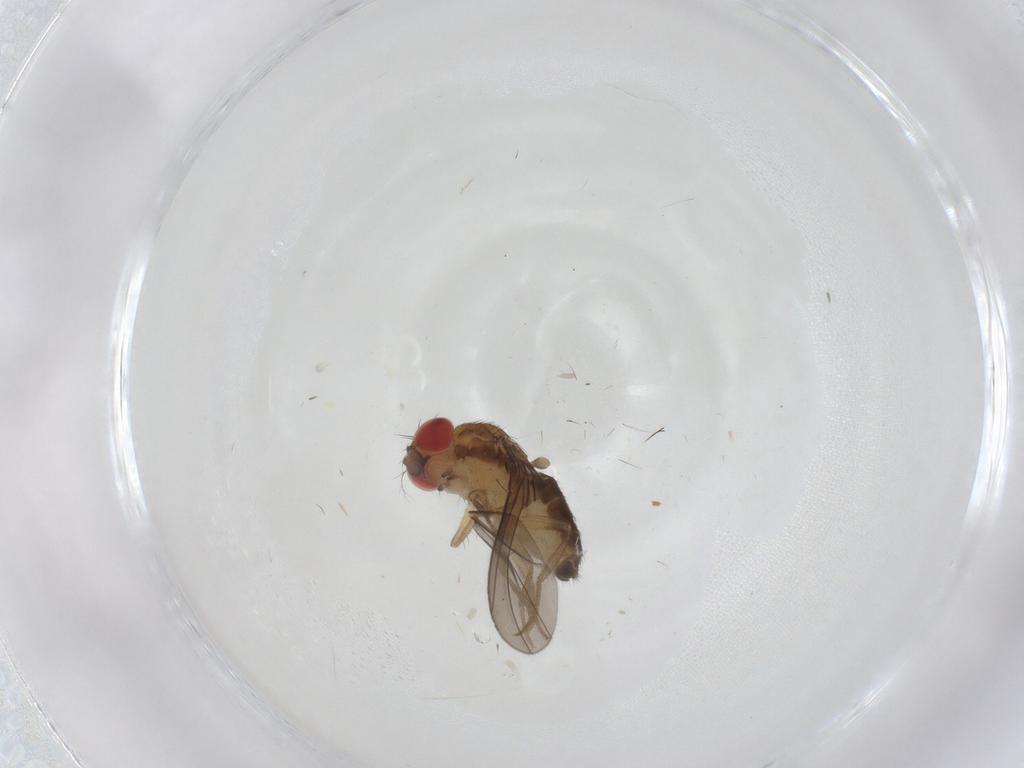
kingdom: Animalia
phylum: Arthropoda
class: Insecta
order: Diptera
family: Drosophilidae
